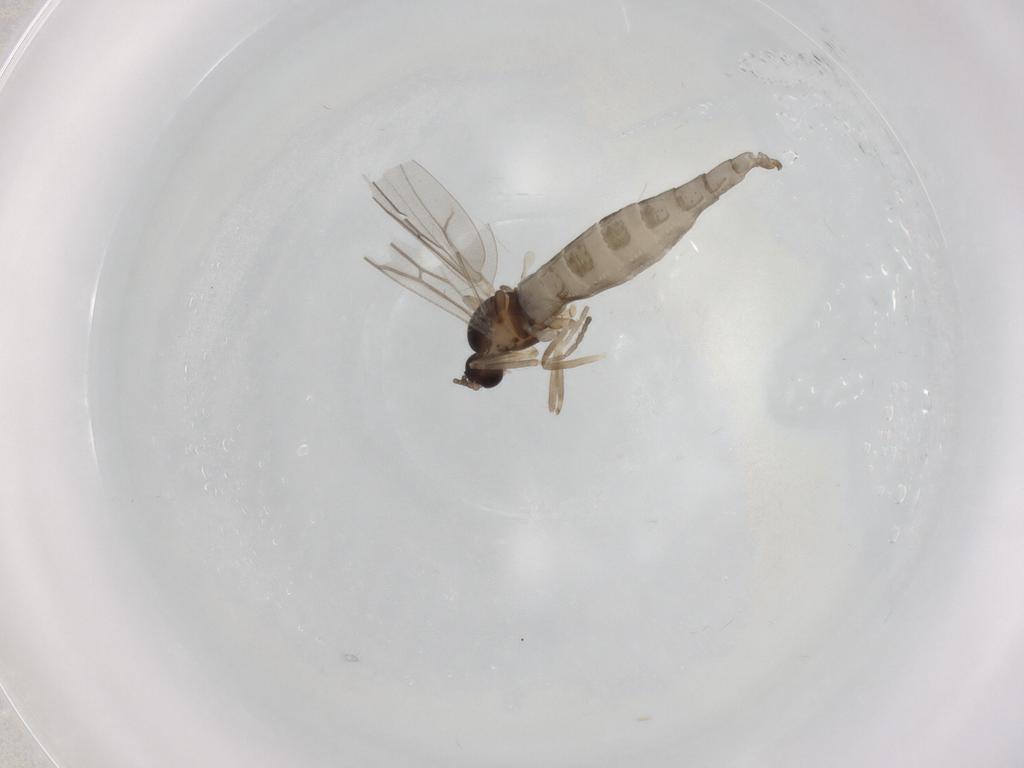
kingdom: Animalia
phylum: Arthropoda
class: Insecta
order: Diptera
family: Cecidomyiidae
